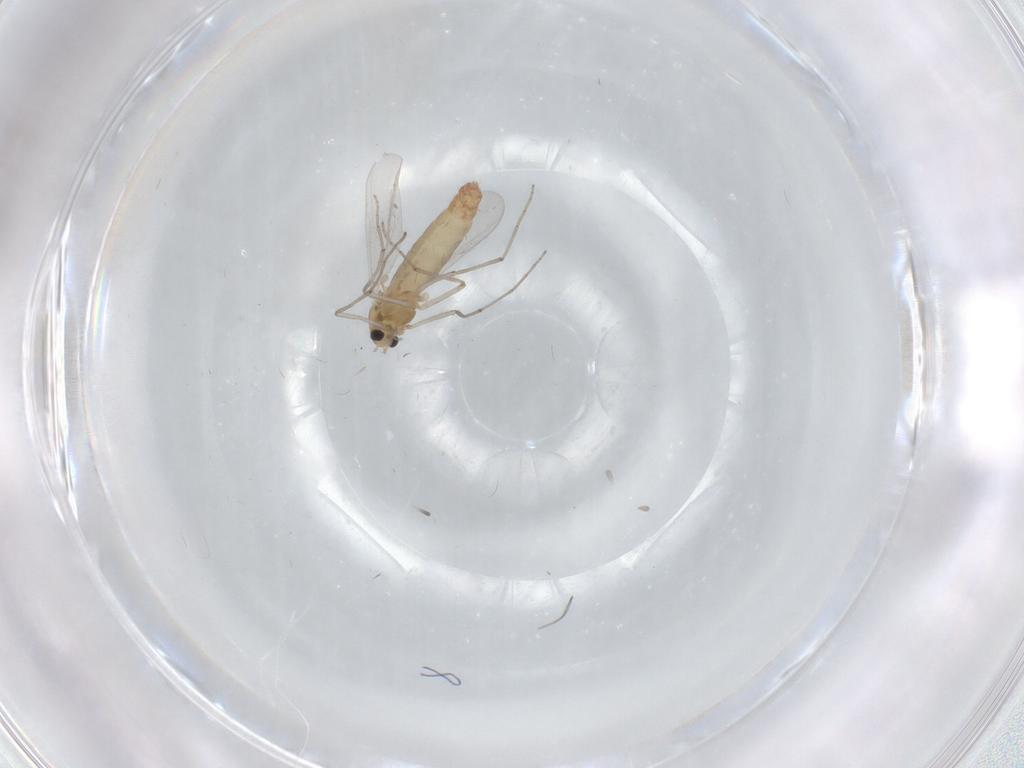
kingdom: Animalia
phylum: Arthropoda
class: Insecta
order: Diptera
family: Chironomidae
